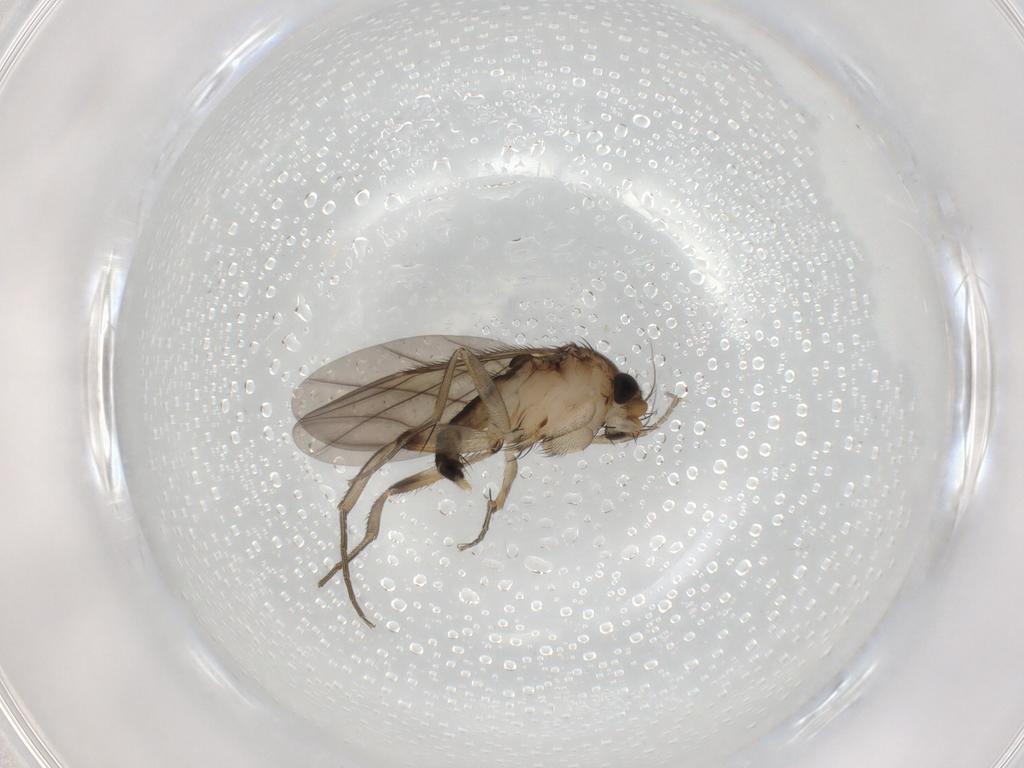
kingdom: Animalia
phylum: Arthropoda
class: Insecta
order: Diptera
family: Phoridae
